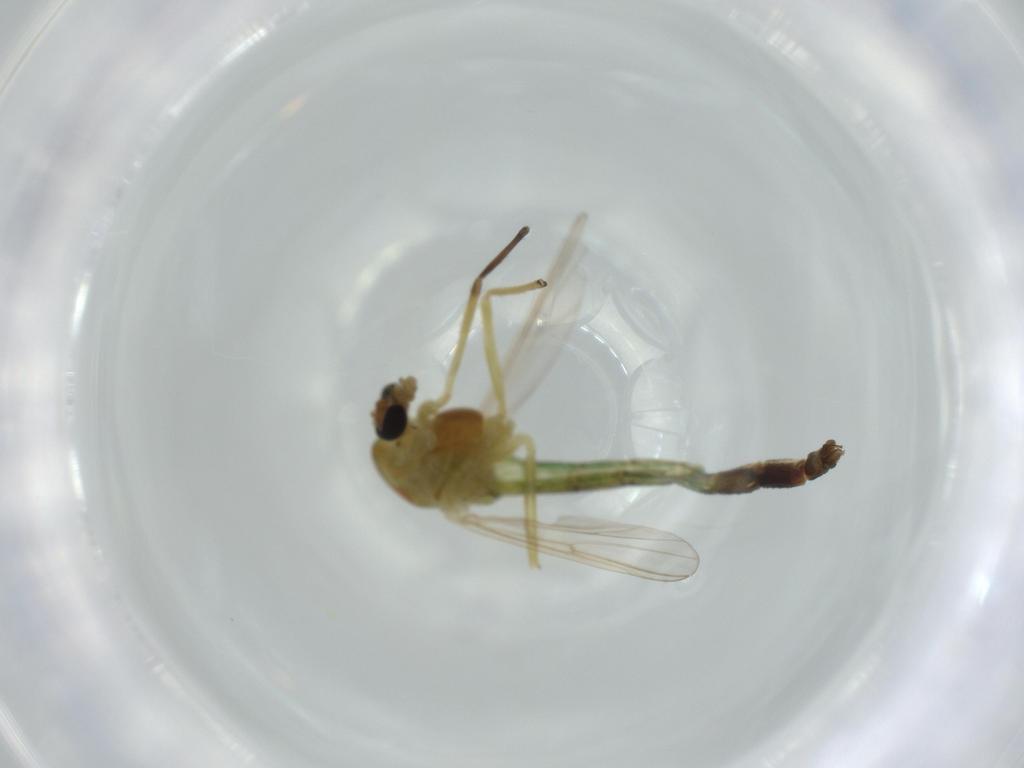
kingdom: Animalia
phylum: Arthropoda
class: Insecta
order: Diptera
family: Chironomidae
